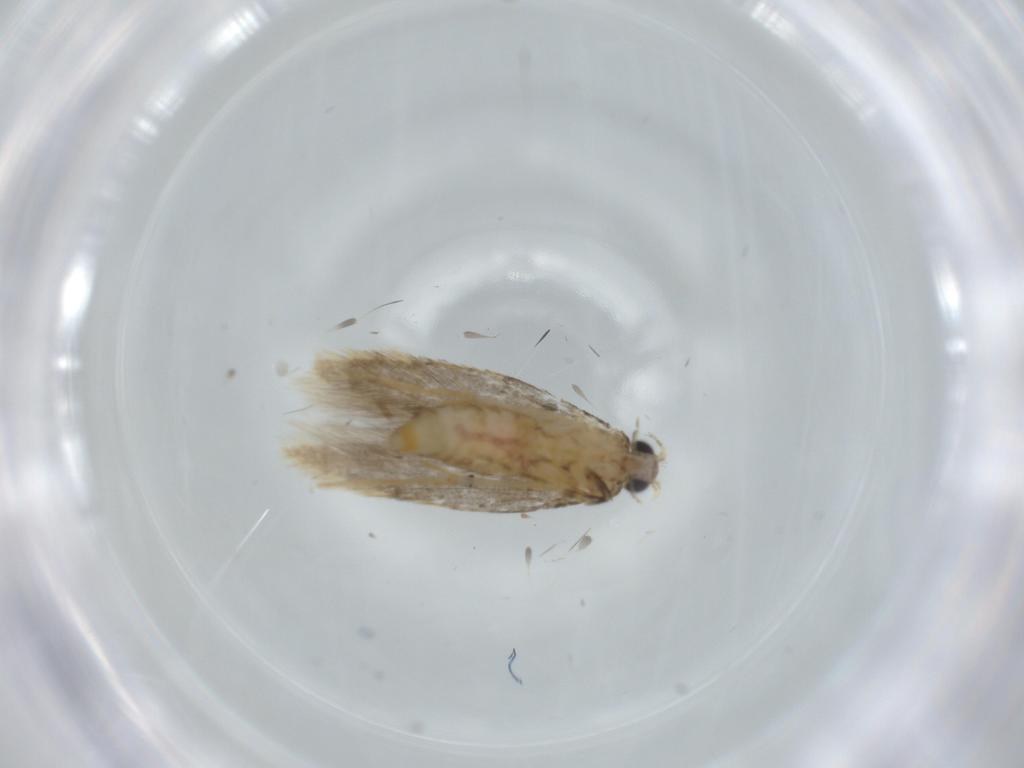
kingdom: Animalia
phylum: Arthropoda
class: Insecta
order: Lepidoptera
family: Tineidae
